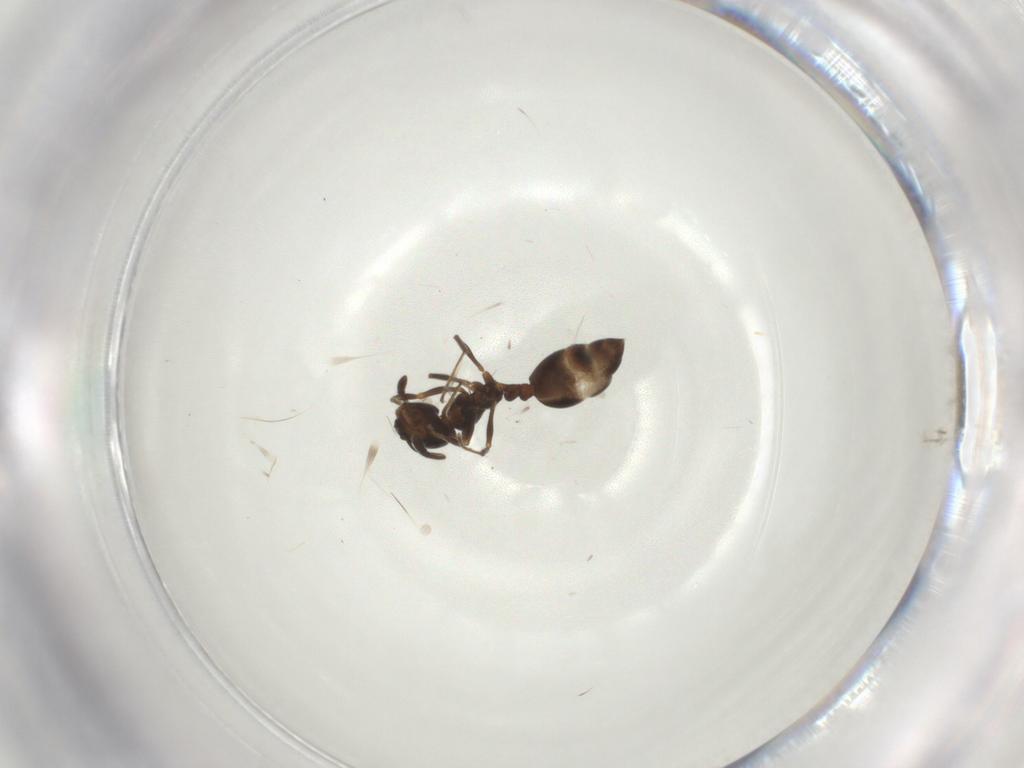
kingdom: Animalia
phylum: Arthropoda
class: Insecta
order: Hymenoptera
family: Formicidae
